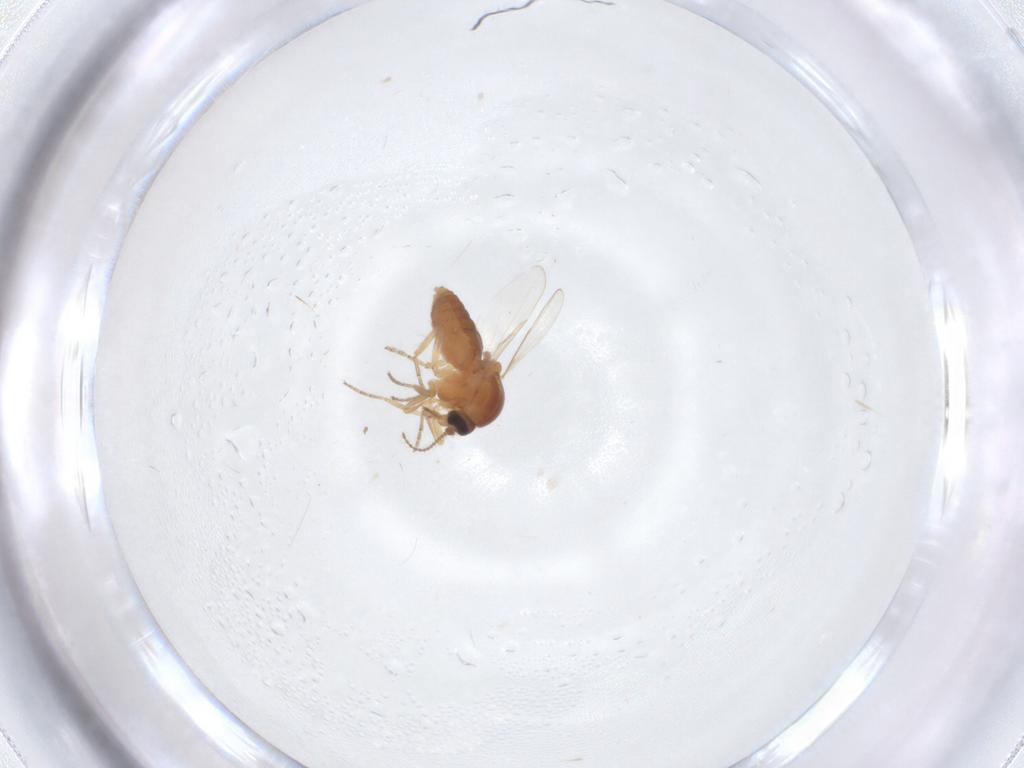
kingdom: Animalia
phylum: Arthropoda
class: Insecta
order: Diptera
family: Ceratopogonidae
